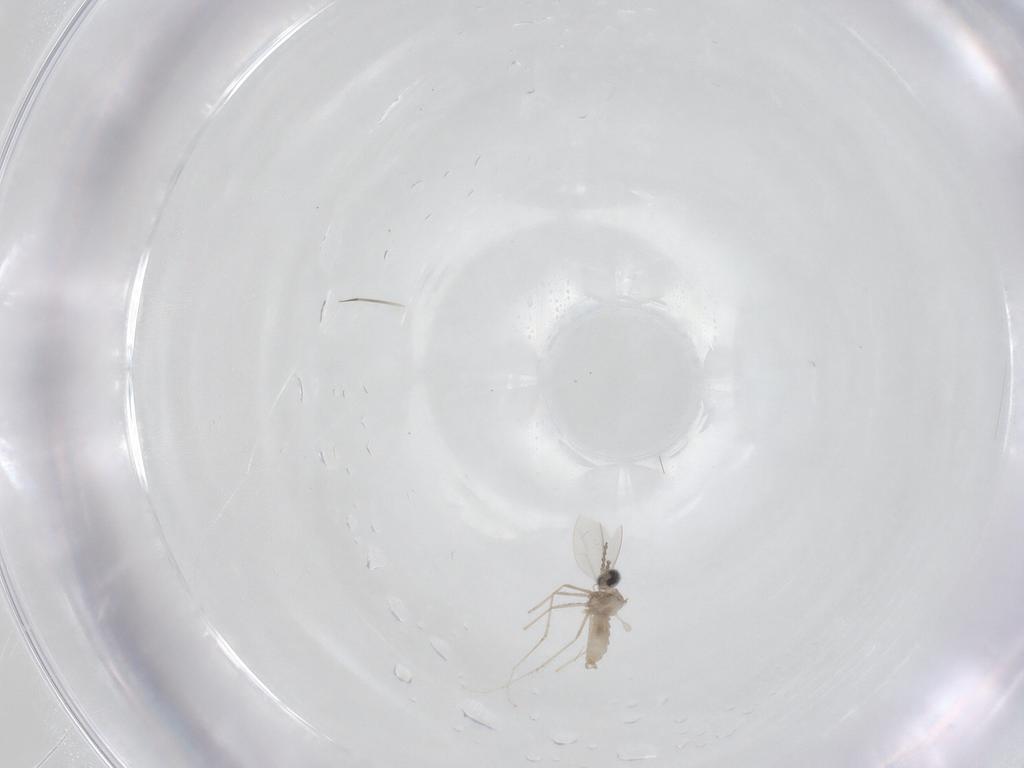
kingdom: Animalia
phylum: Arthropoda
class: Insecta
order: Diptera
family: Cecidomyiidae
